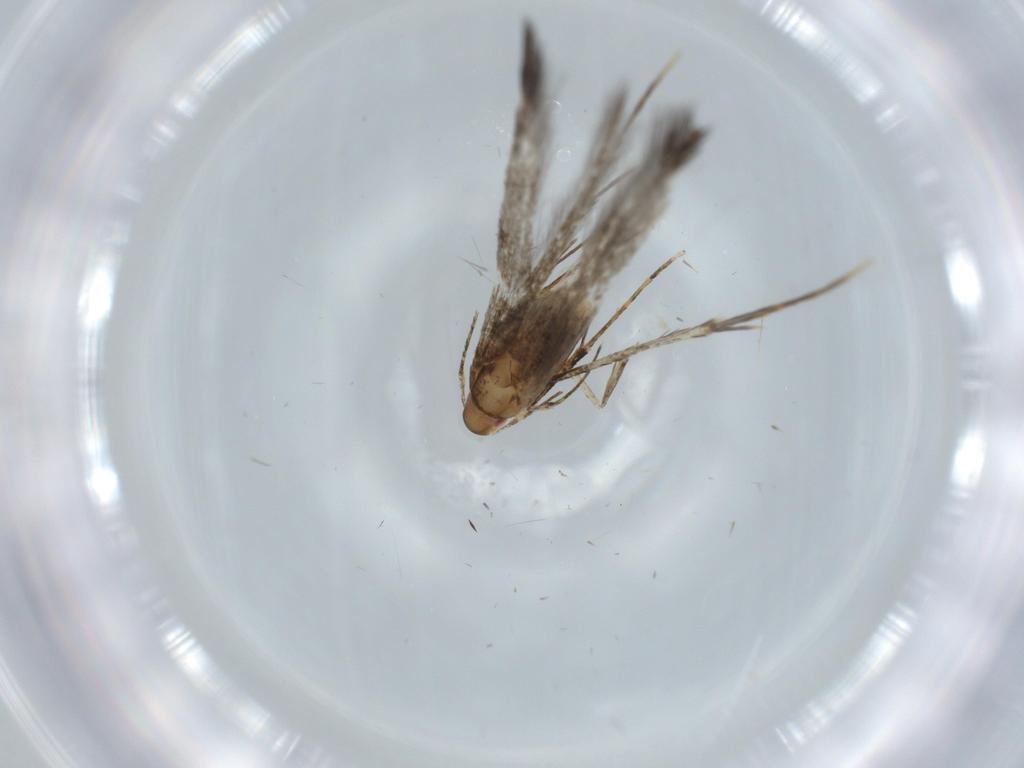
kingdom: Animalia
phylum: Arthropoda
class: Insecta
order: Lepidoptera
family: Cosmopterigidae
